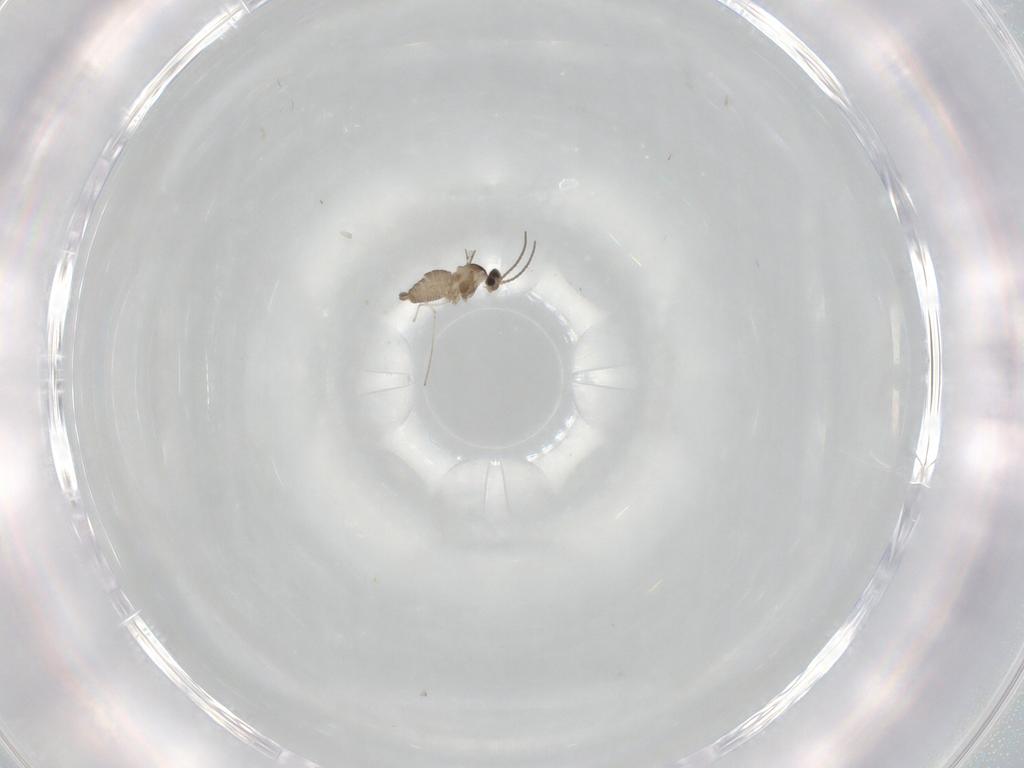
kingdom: Animalia
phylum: Arthropoda
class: Insecta
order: Diptera
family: Cecidomyiidae
